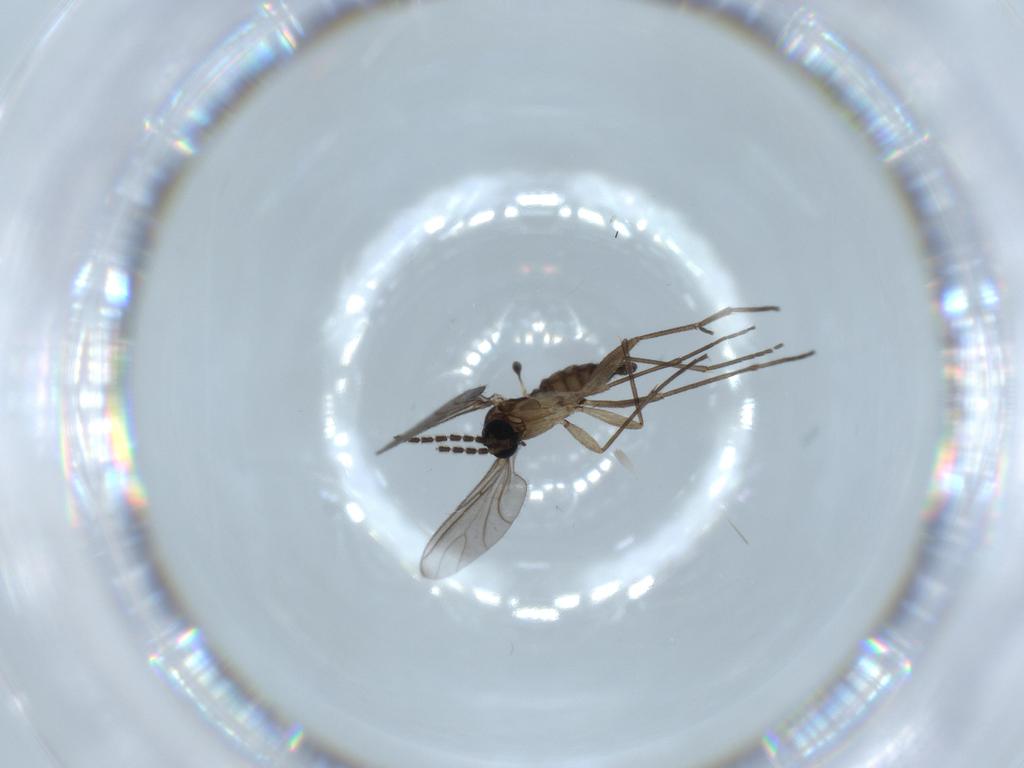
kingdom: Animalia
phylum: Arthropoda
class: Insecta
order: Diptera
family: Sciaridae
